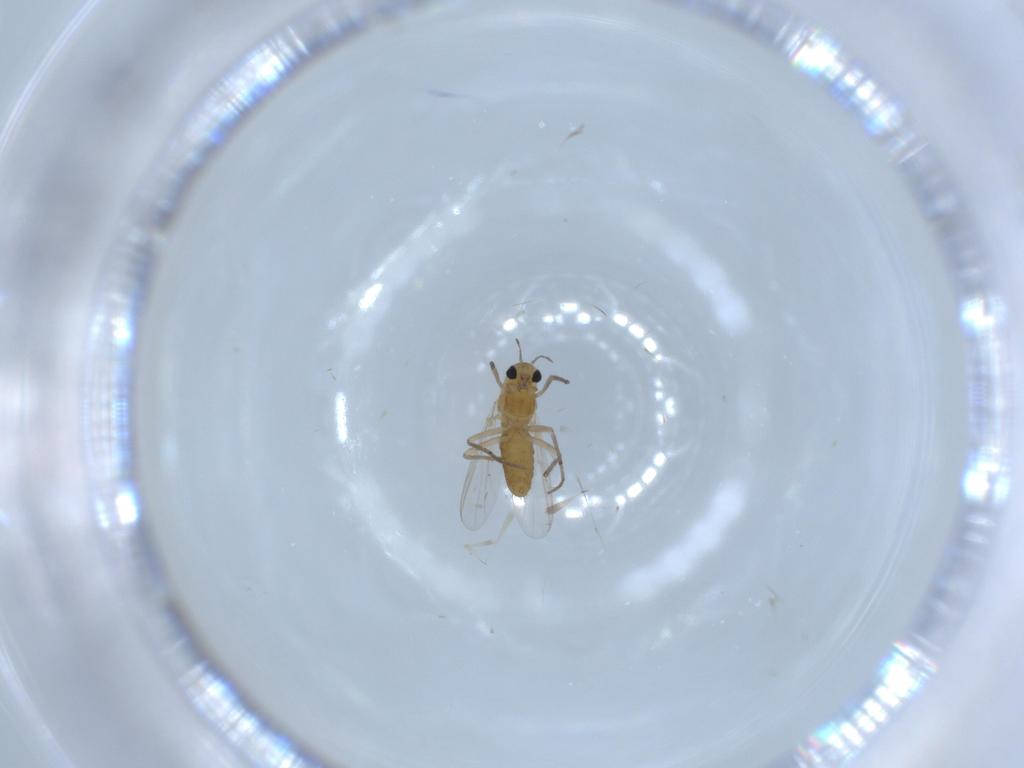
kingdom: Animalia
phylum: Arthropoda
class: Insecta
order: Diptera
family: Chironomidae
